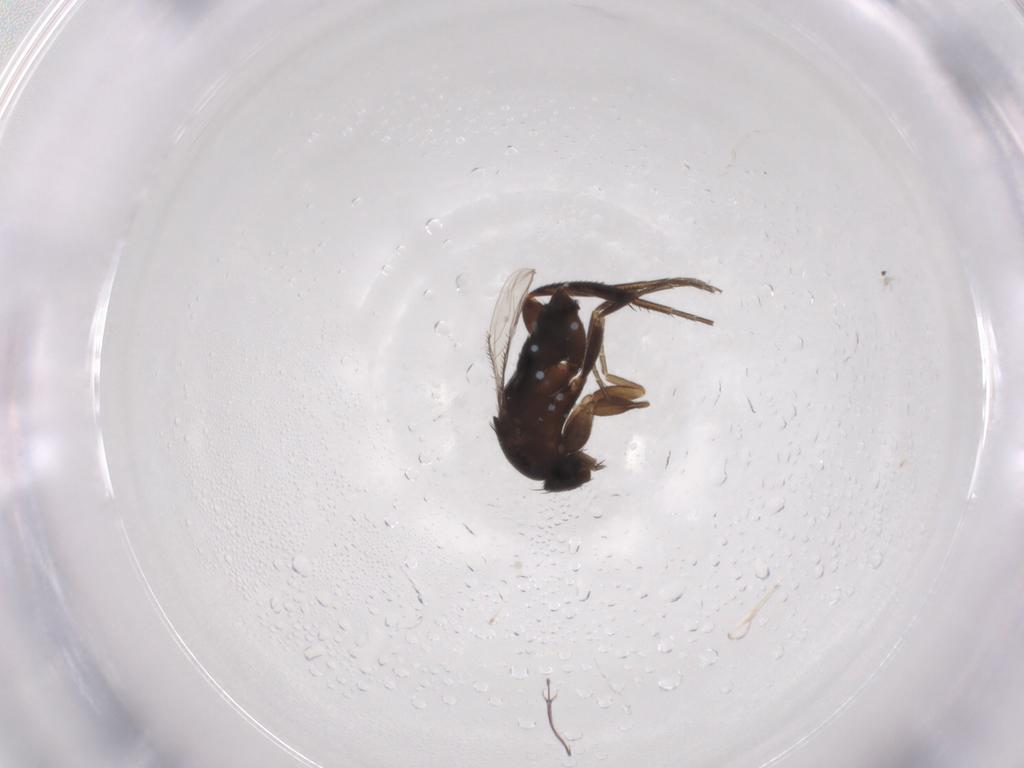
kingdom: Animalia
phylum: Arthropoda
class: Insecta
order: Diptera
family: Phoridae
